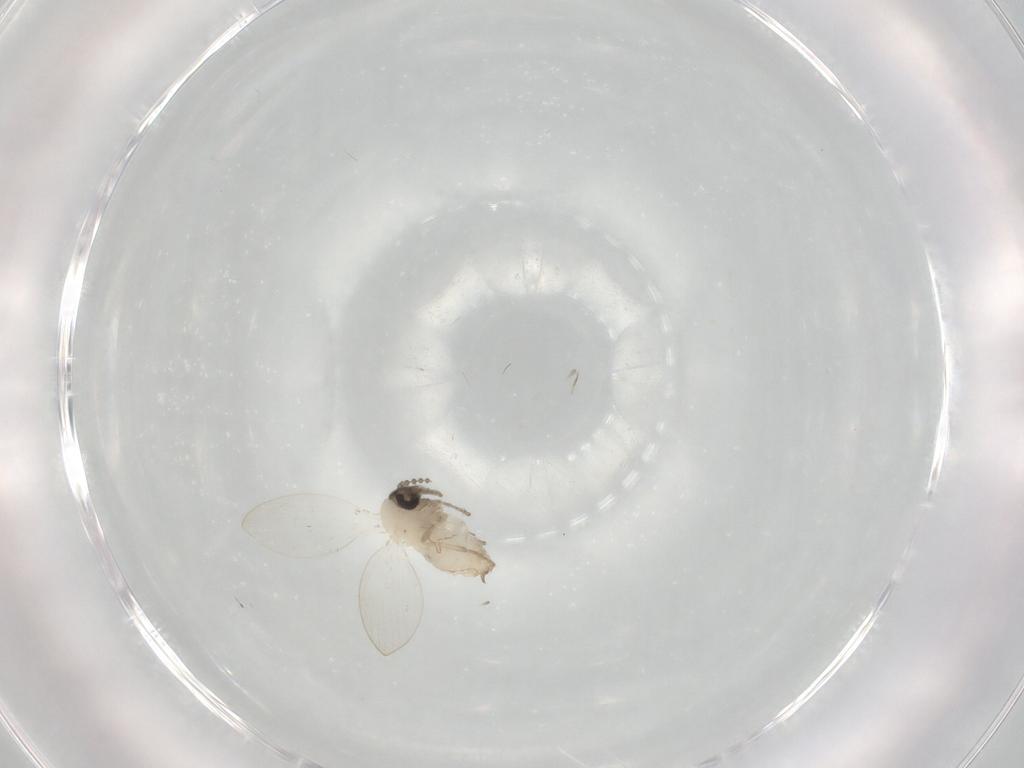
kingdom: Animalia
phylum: Arthropoda
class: Insecta
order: Diptera
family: Psychodidae
